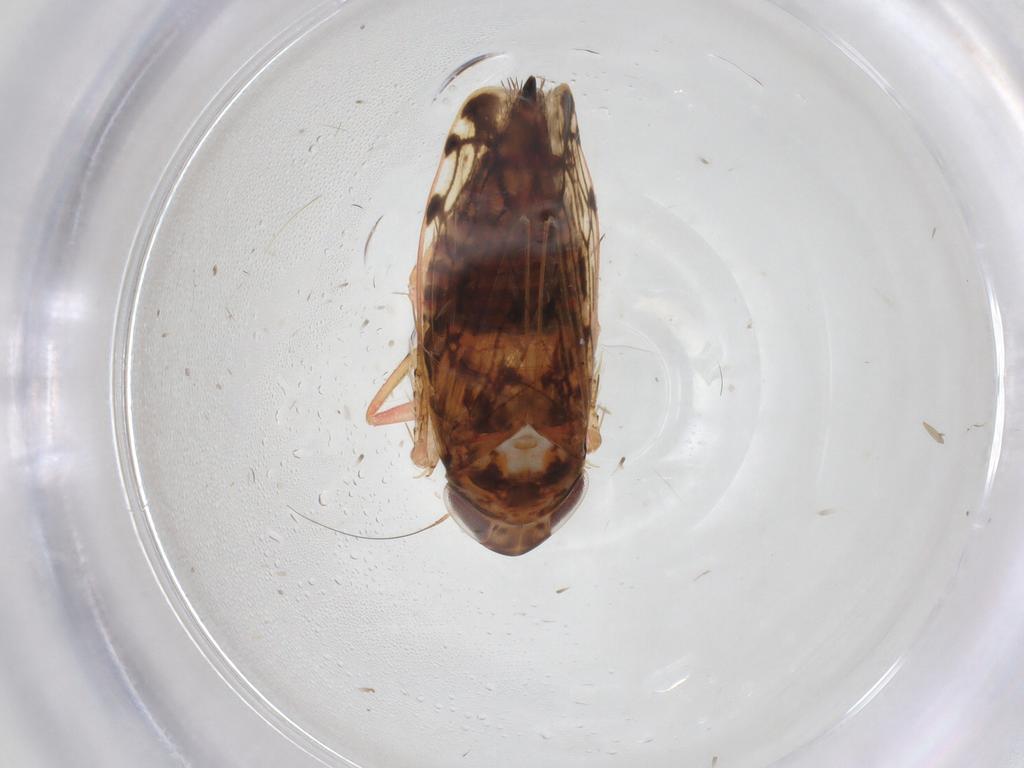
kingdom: Animalia
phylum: Arthropoda
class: Insecta
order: Hemiptera
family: Cicadellidae
